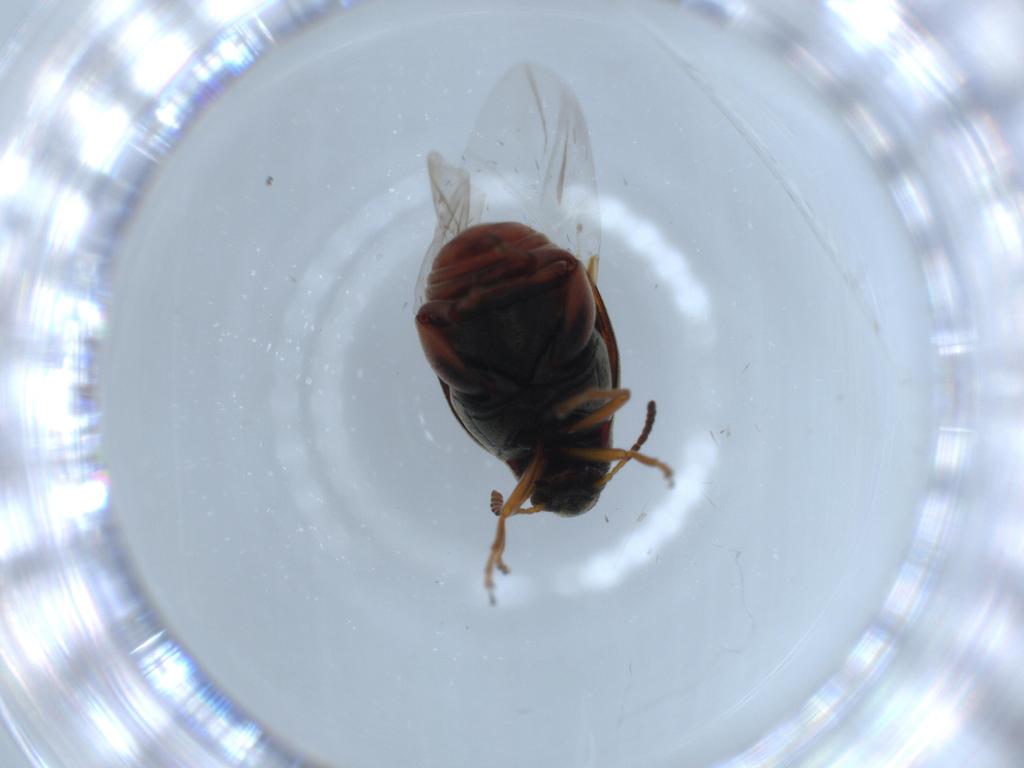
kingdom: Animalia
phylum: Arthropoda
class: Insecta
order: Coleoptera
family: Chrysomelidae
